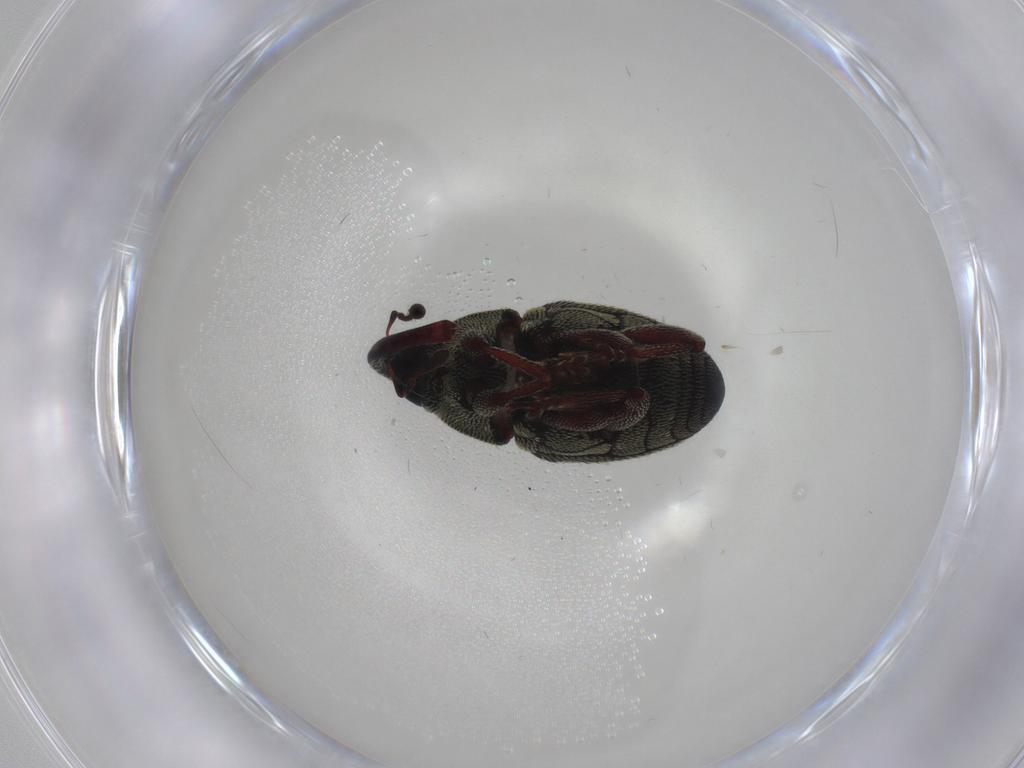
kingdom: Animalia
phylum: Arthropoda
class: Insecta
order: Coleoptera
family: Curculionidae
